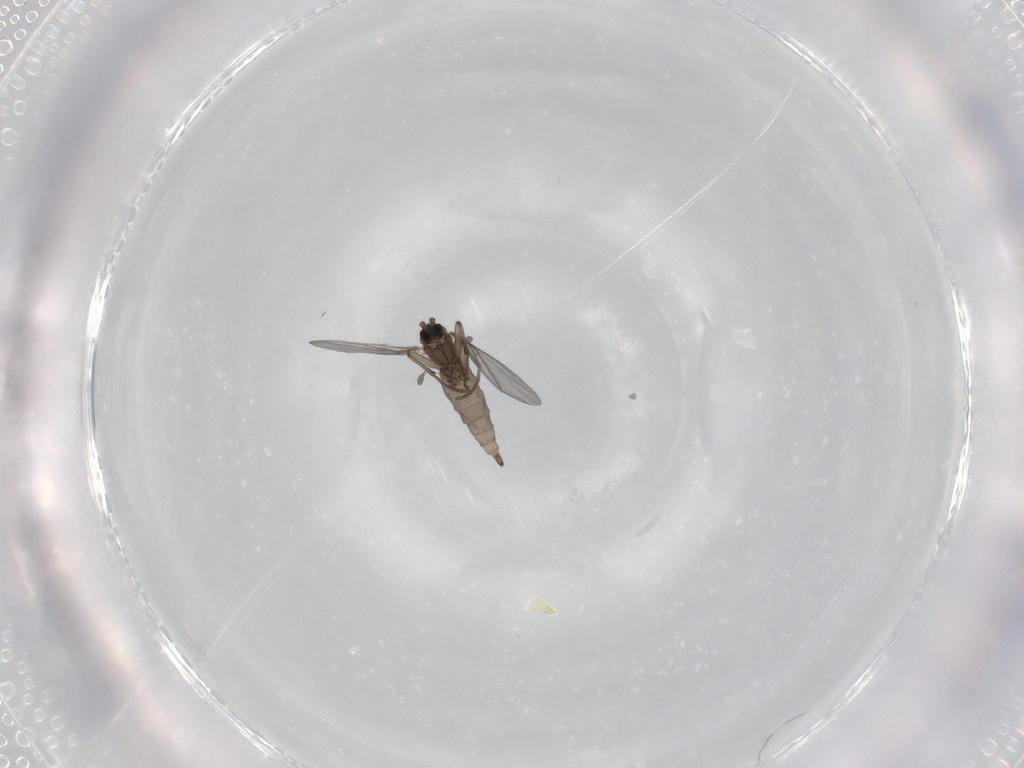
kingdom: Animalia
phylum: Arthropoda
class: Insecta
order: Diptera
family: Sciaridae
